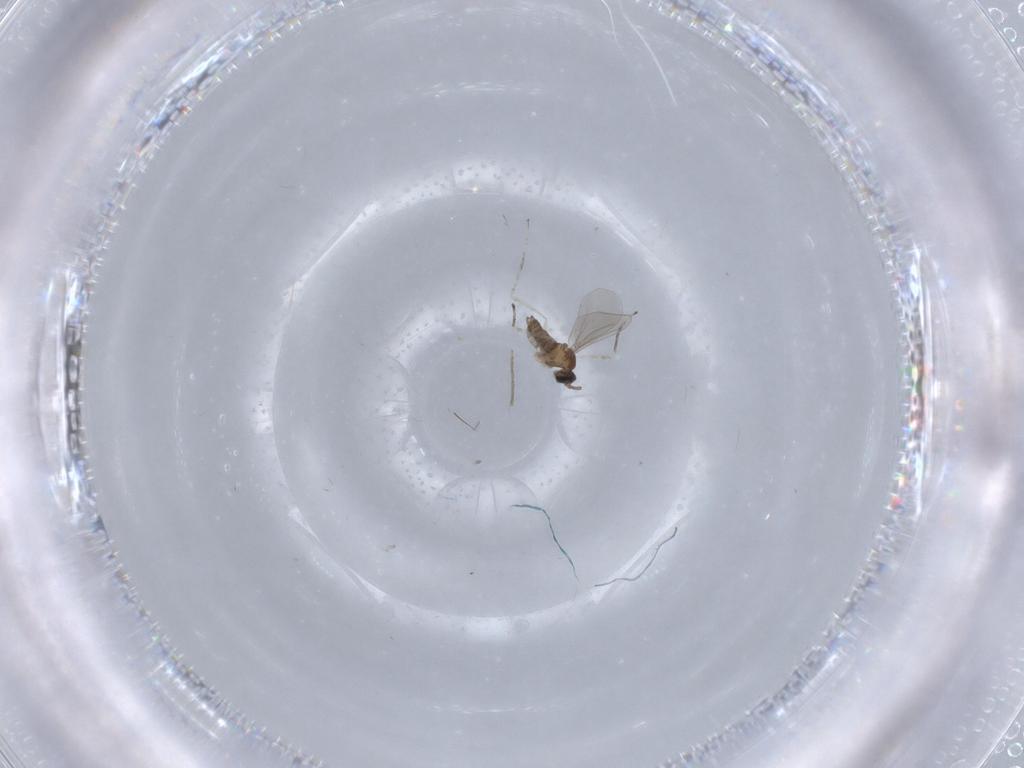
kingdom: Animalia
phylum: Arthropoda
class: Insecta
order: Diptera
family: Cecidomyiidae
